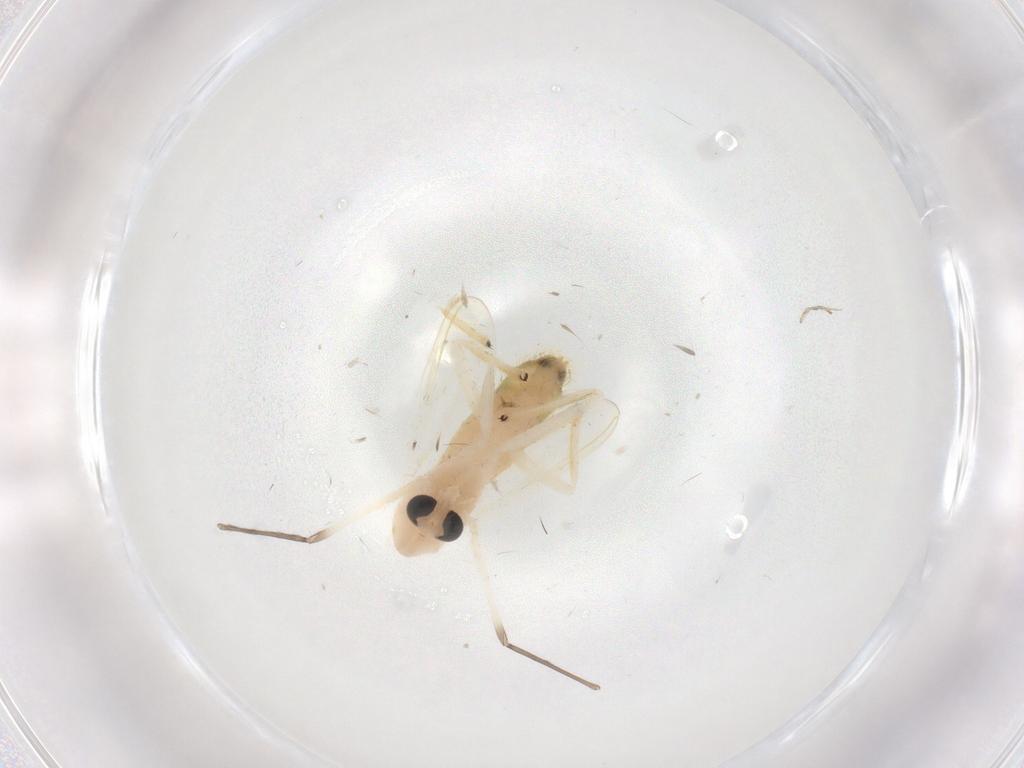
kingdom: Animalia
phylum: Arthropoda
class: Insecta
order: Diptera
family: Chironomidae
